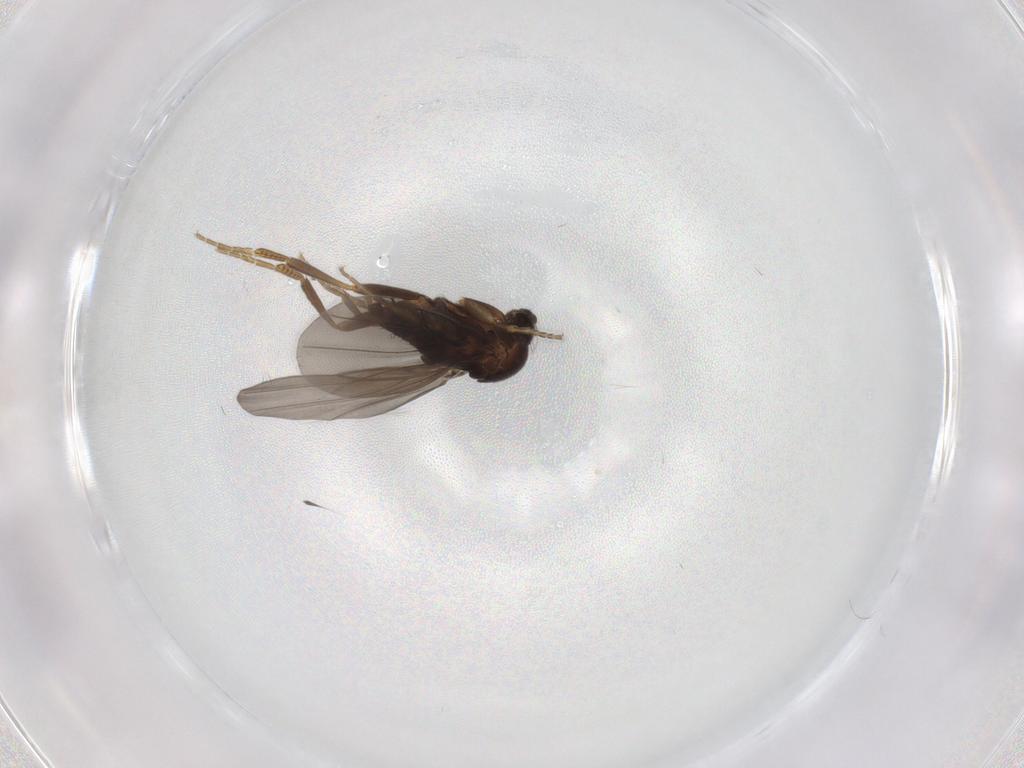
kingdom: Animalia
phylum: Arthropoda
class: Insecta
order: Diptera
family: Phoridae
